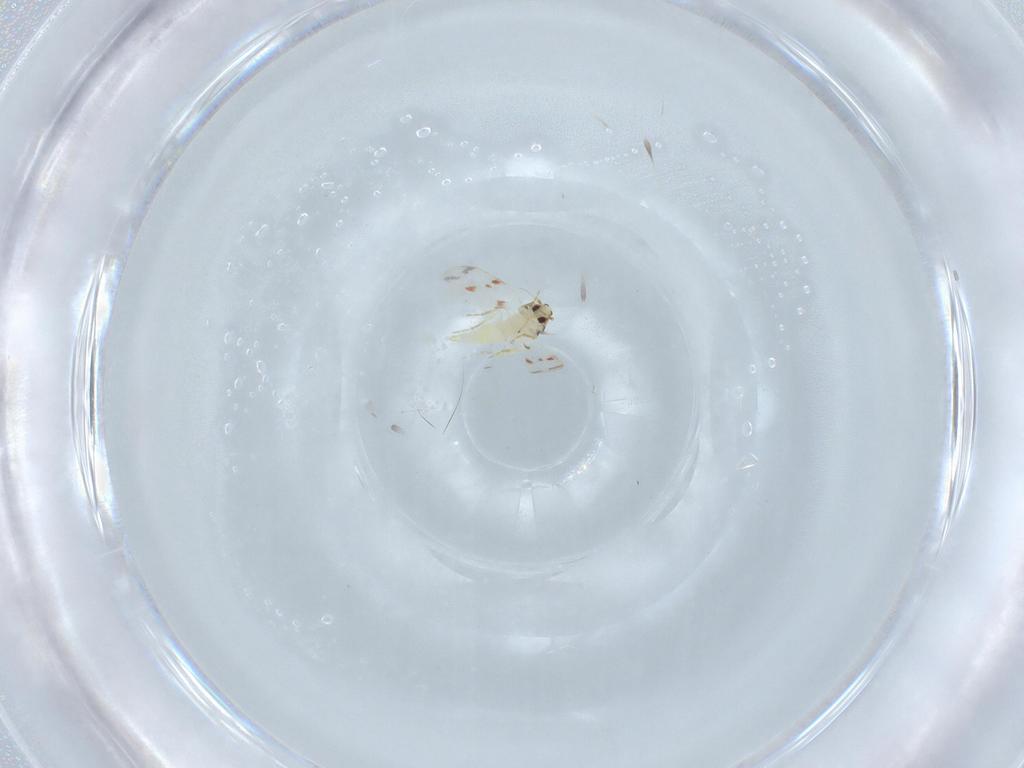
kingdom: Animalia
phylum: Arthropoda
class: Insecta
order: Hemiptera
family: Aleyrodidae
